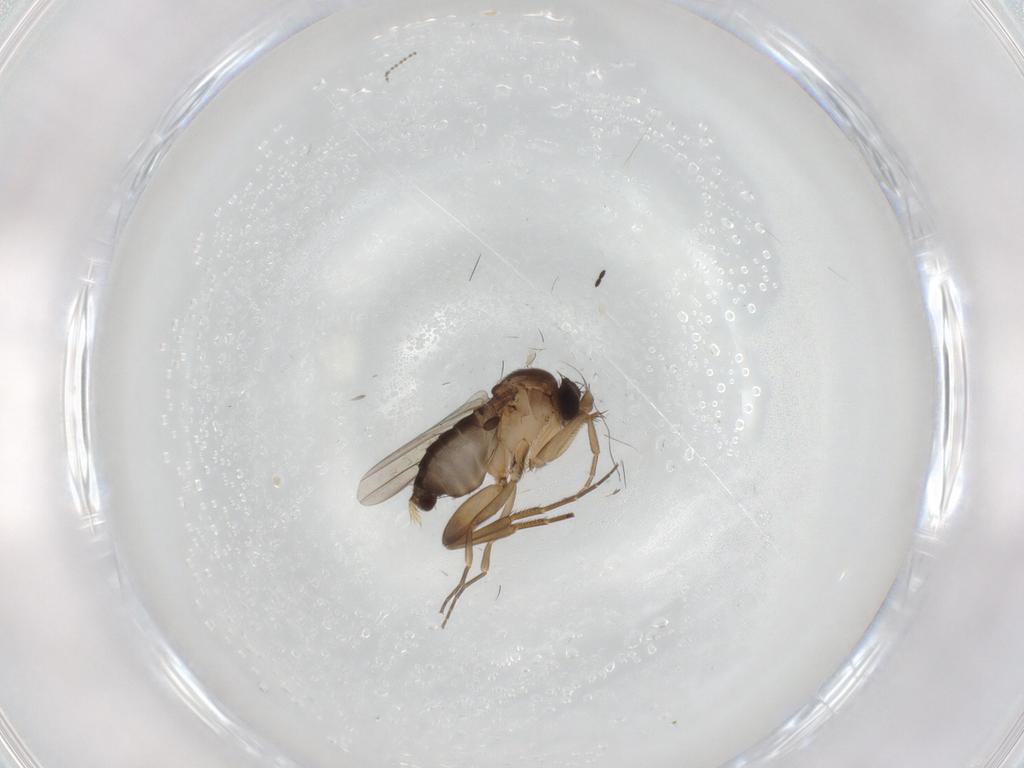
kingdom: Animalia
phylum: Arthropoda
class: Insecta
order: Diptera
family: Phoridae
